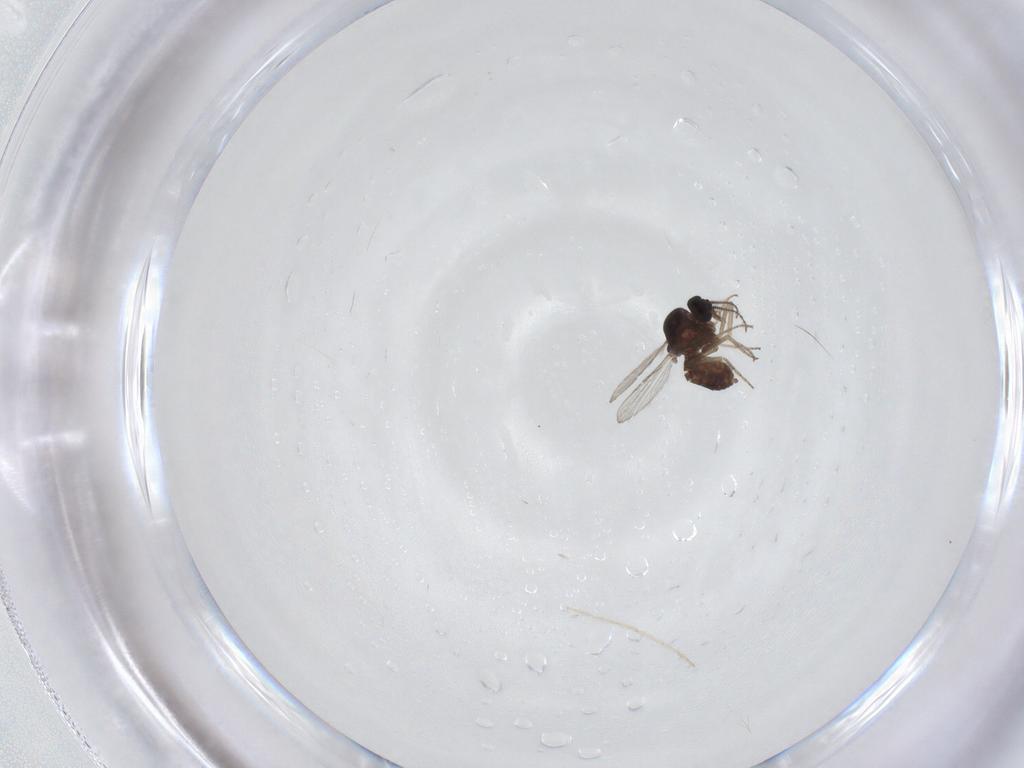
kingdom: Animalia
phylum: Arthropoda
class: Insecta
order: Diptera
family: Ceratopogonidae
